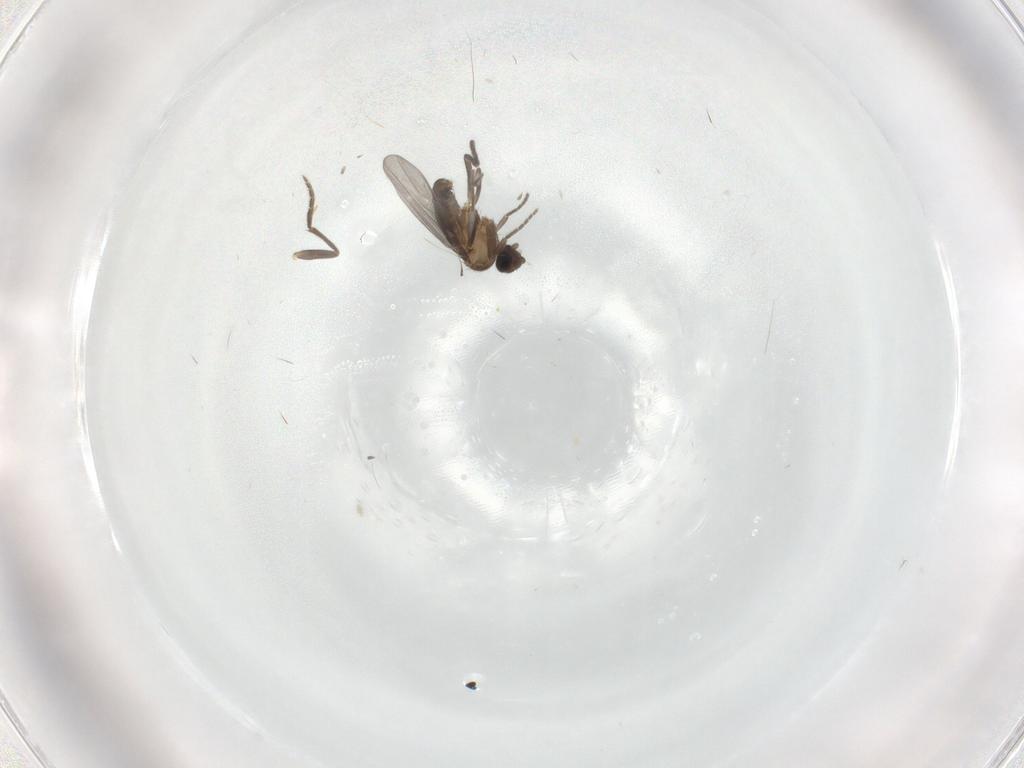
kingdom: Animalia
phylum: Arthropoda
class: Insecta
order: Diptera
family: Phoridae
